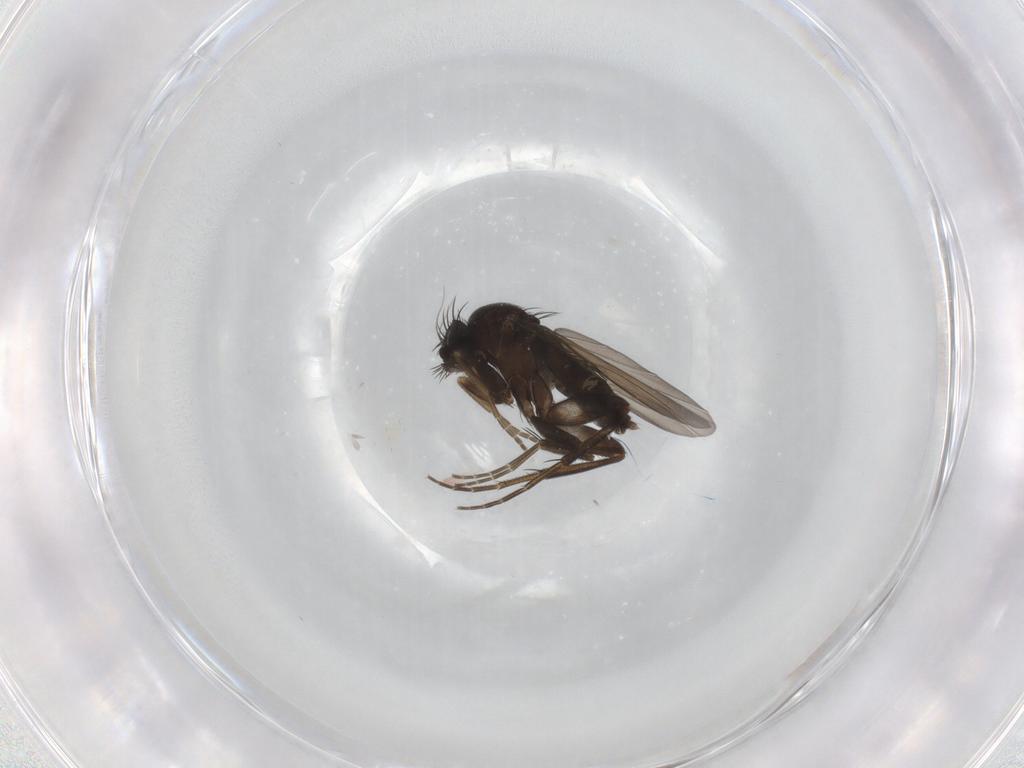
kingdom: Animalia
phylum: Arthropoda
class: Insecta
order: Diptera
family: Phoridae
